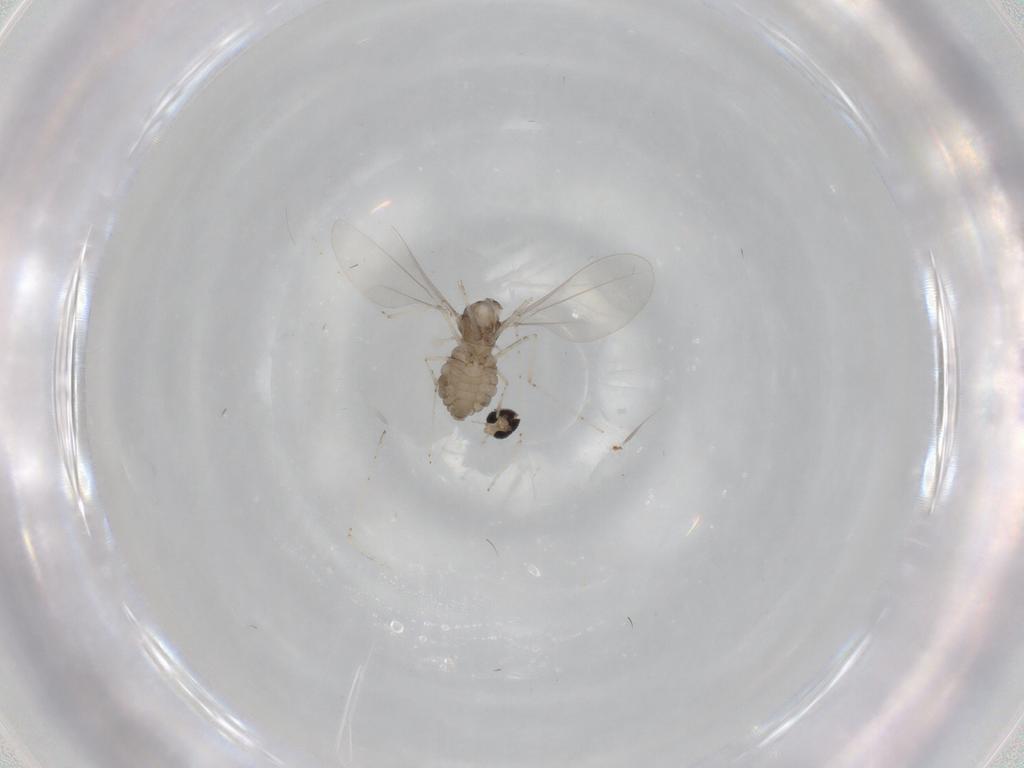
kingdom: Animalia
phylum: Arthropoda
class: Insecta
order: Diptera
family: Cecidomyiidae
